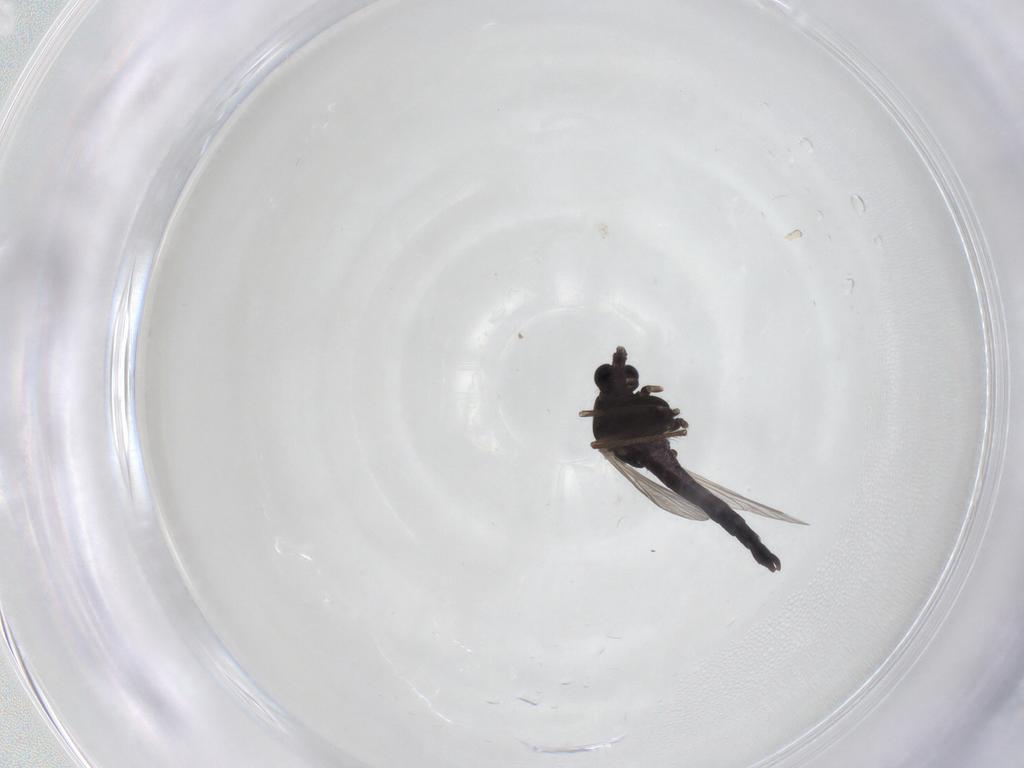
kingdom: Animalia
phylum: Arthropoda
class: Insecta
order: Diptera
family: Chironomidae
